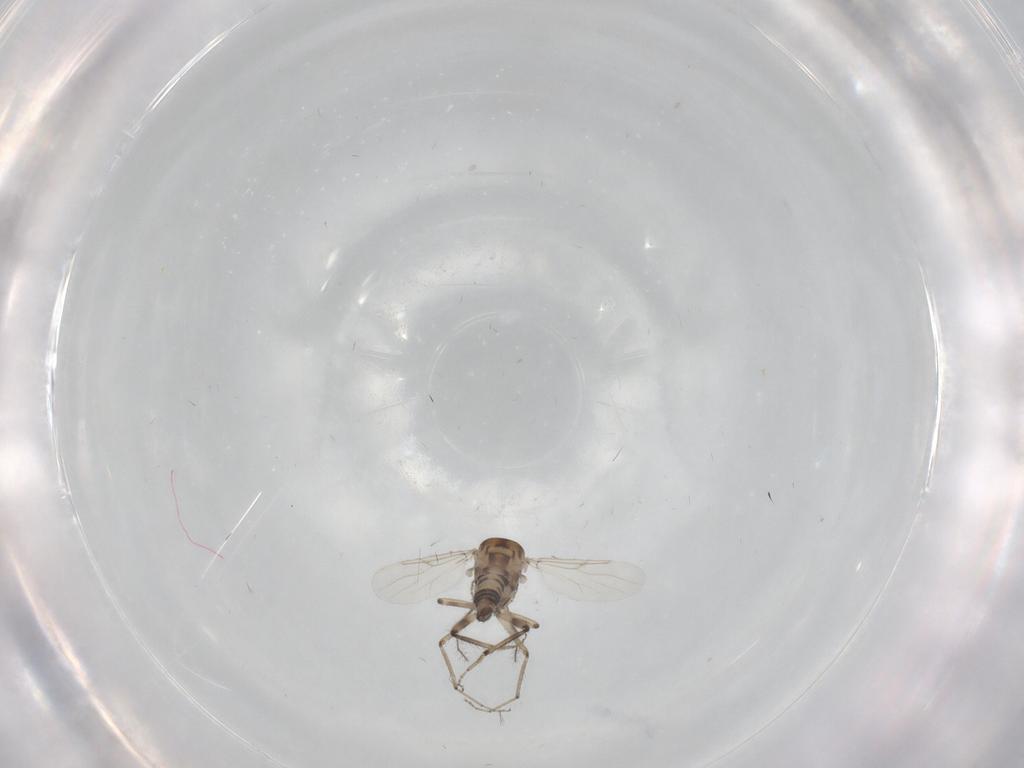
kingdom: Animalia
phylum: Arthropoda
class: Insecta
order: Diptera
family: Ceratopogonidae
